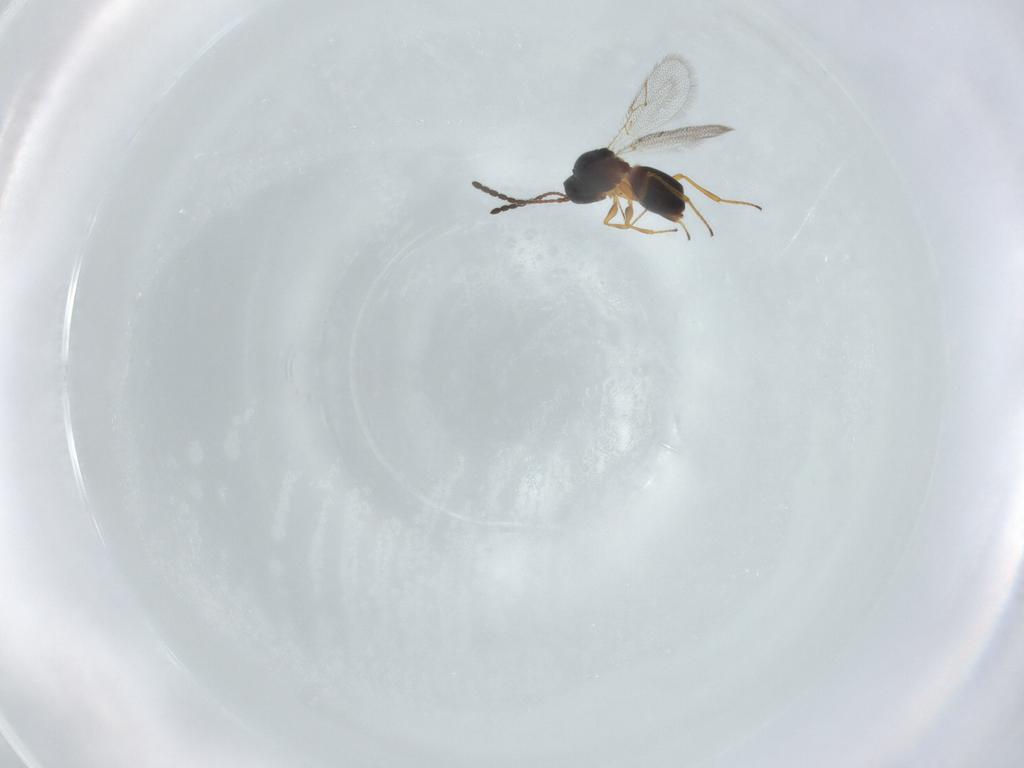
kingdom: Animalia
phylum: Arthropoda
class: Insecta
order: Hymenoptera
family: Figitidae
